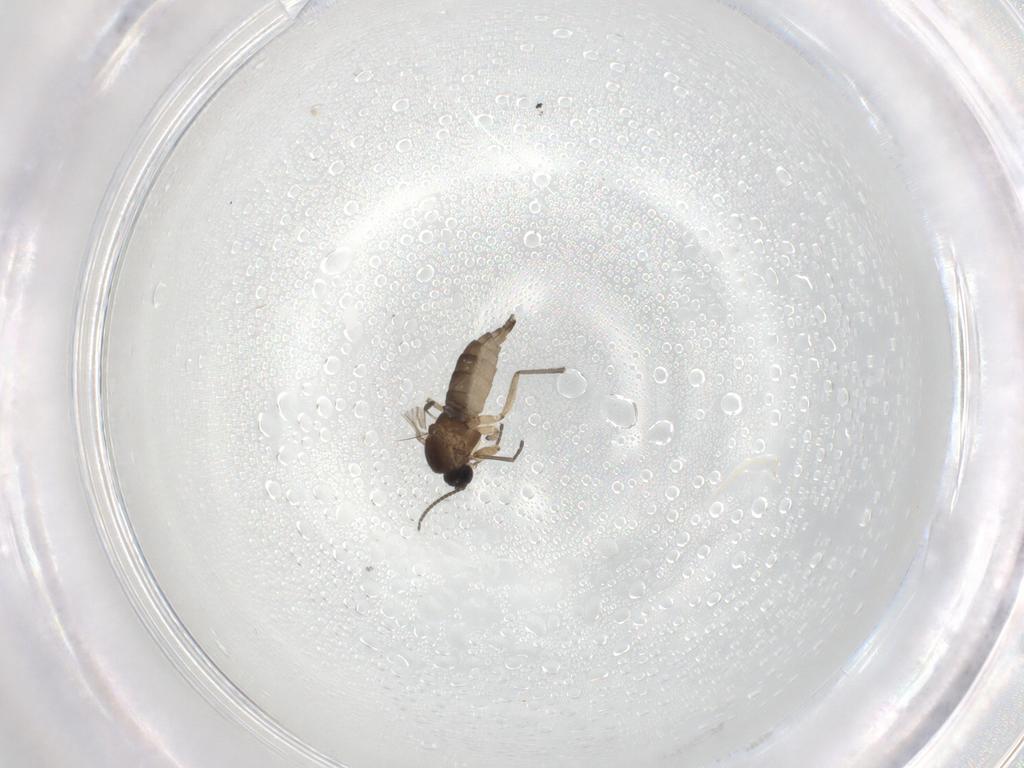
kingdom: Animalia
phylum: Arthropoda
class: Insecta
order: Diptera
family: Sciaridae
